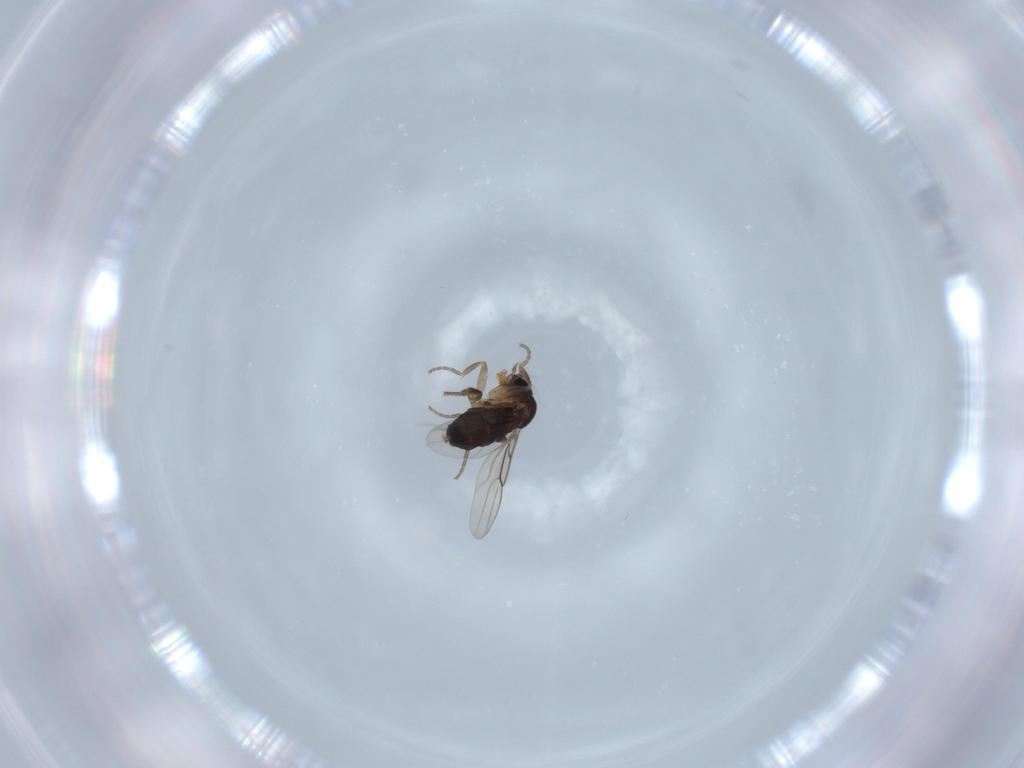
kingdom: Animalia
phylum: Arthropoda
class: Insecta
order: Diptera
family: Phoridae
